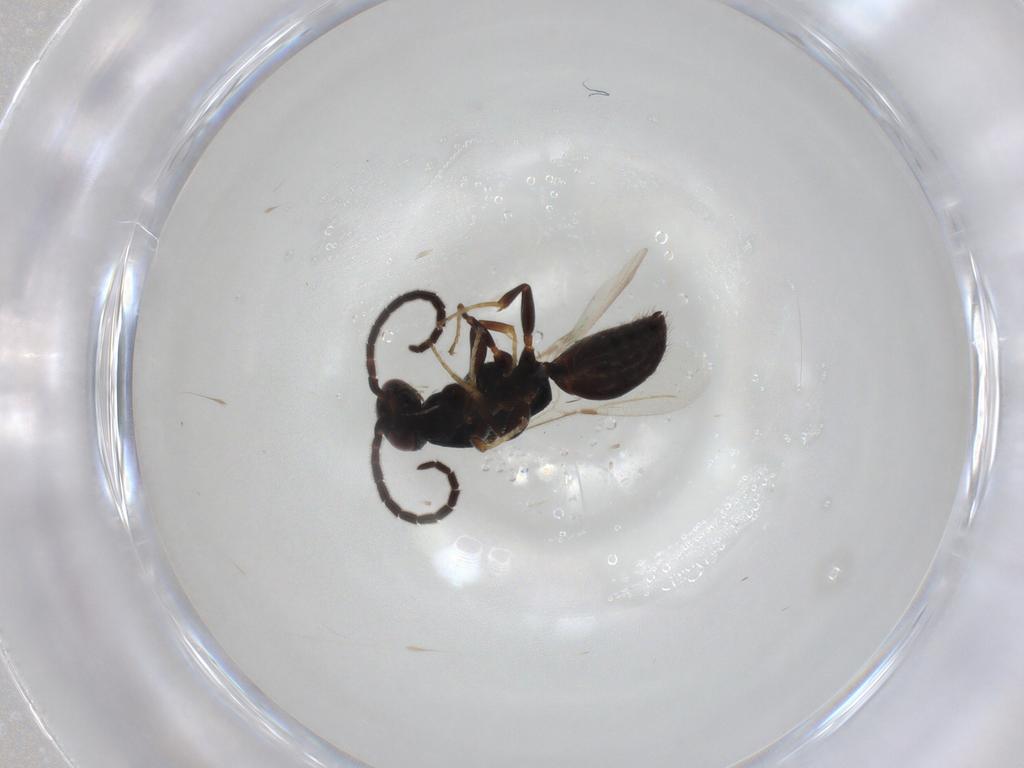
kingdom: Animalia
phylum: Arthropoda
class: Insecta
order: Hymenoptera
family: Bethylidae
